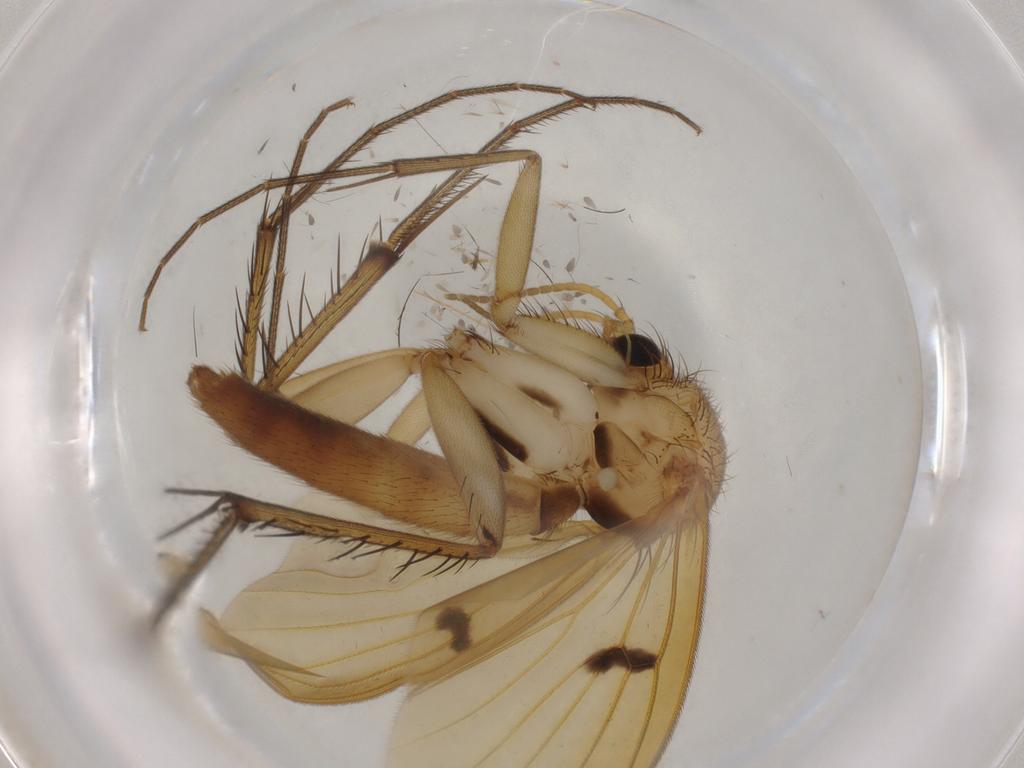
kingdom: Animalia
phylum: Arthropoda
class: Insecta
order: Diptera
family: Mycetophilidae
